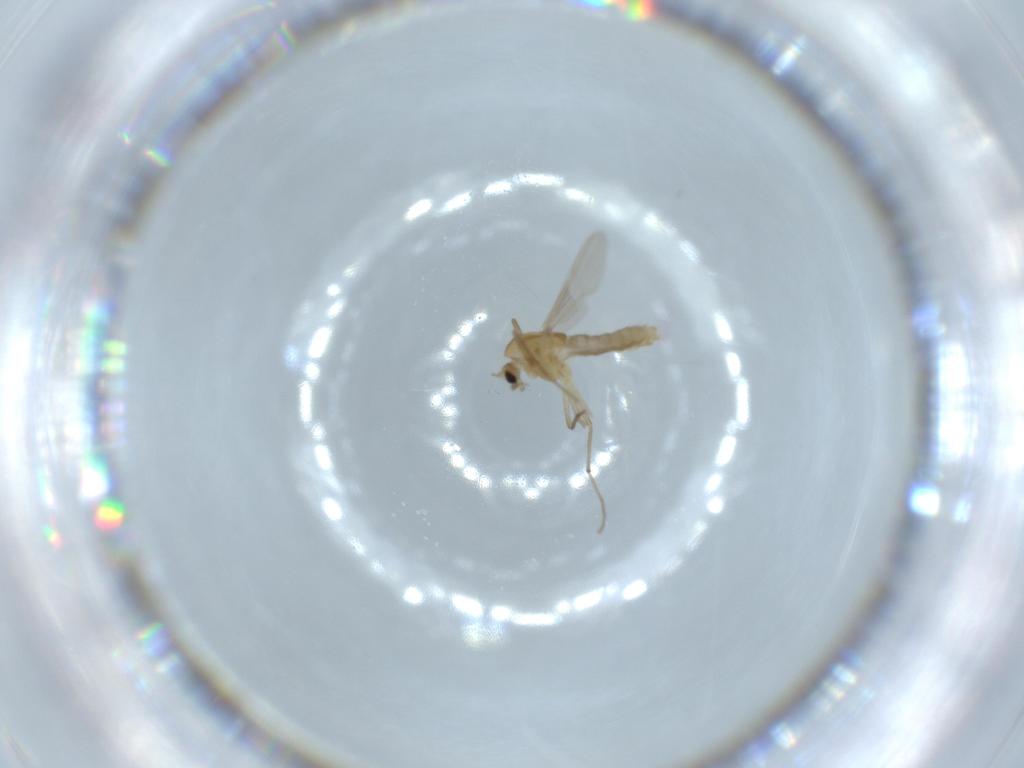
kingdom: Animalia
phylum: Arthropoda
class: Insecta
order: Diptera
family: Chironomidae
